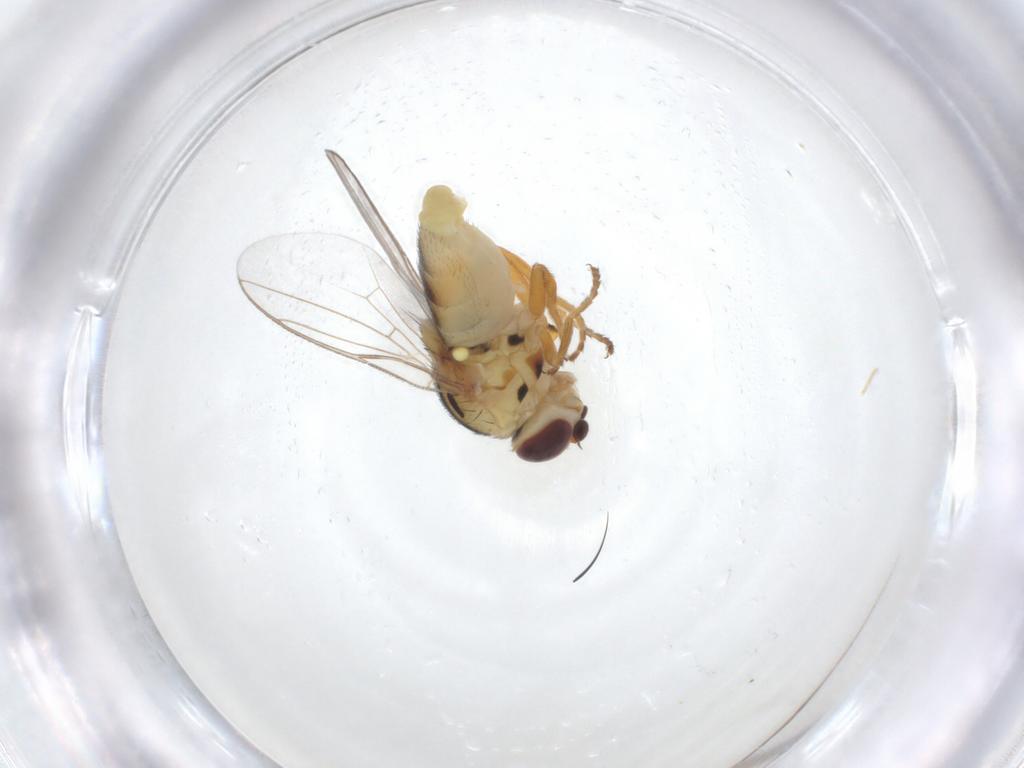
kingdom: Animalia
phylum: Arthropoda
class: Insecta
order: Diptera
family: Chloropidae
